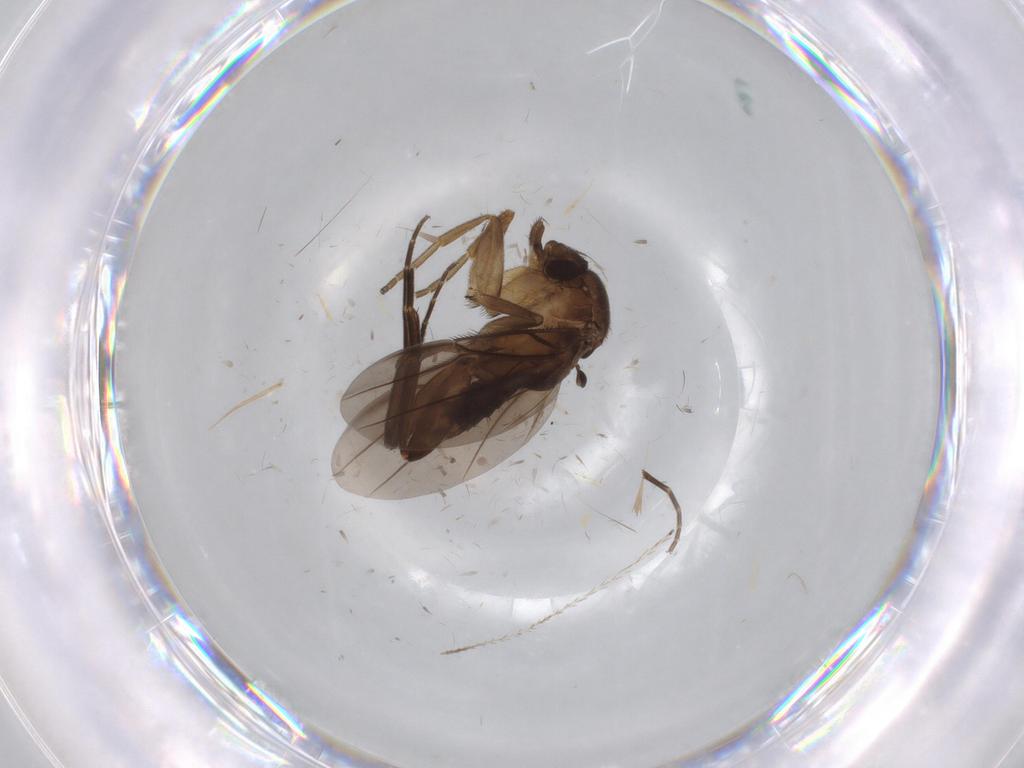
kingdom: Animalia
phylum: Arthropoda
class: Insecta
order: Diptera
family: Phoridae
